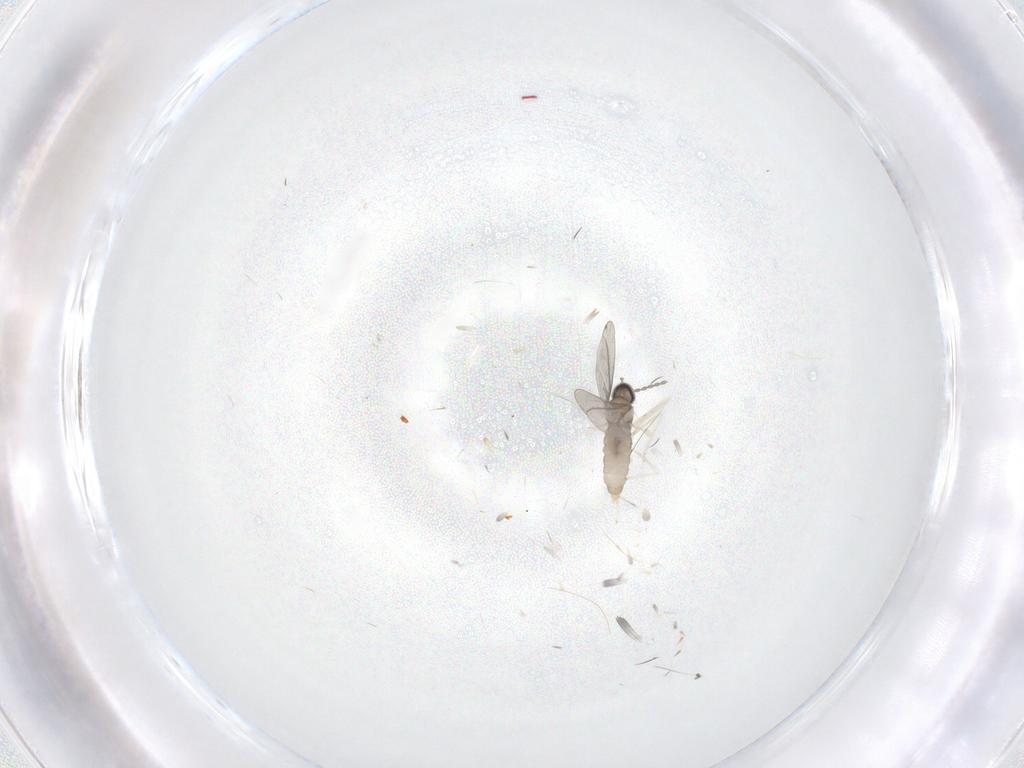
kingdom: Animalia
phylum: Arthropoda
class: Insecta
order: Diptera
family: Cecidomyiidae
